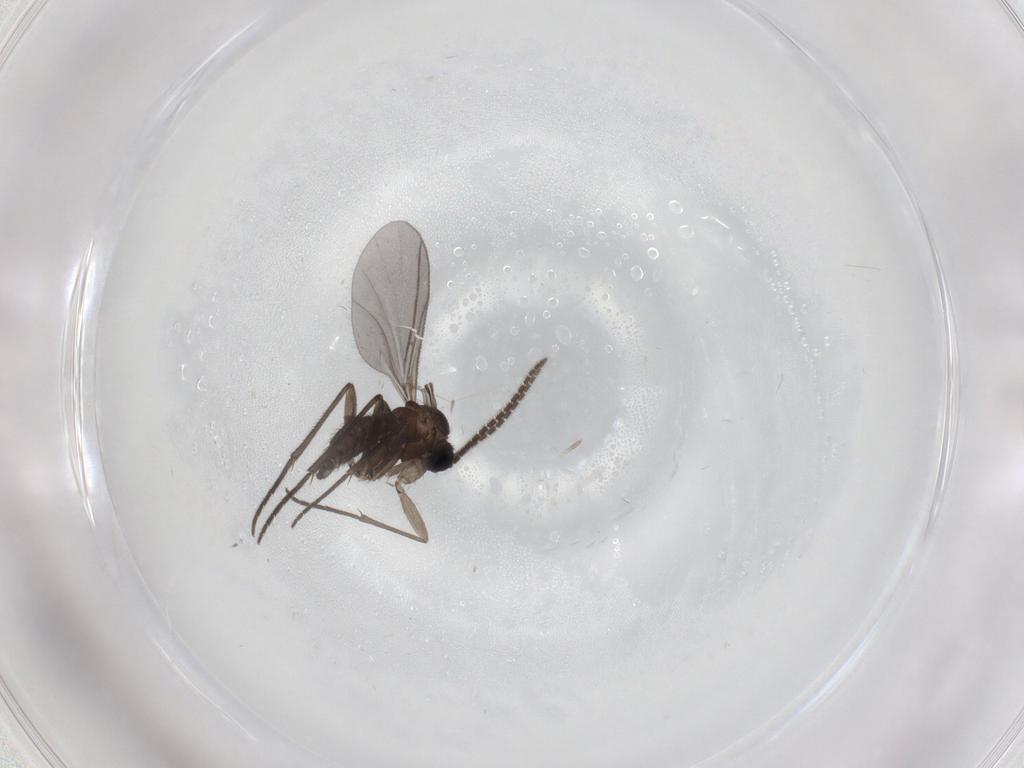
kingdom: Animalia
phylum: Arthropoda
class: Insecta
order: Diptera
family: Sciaridae
